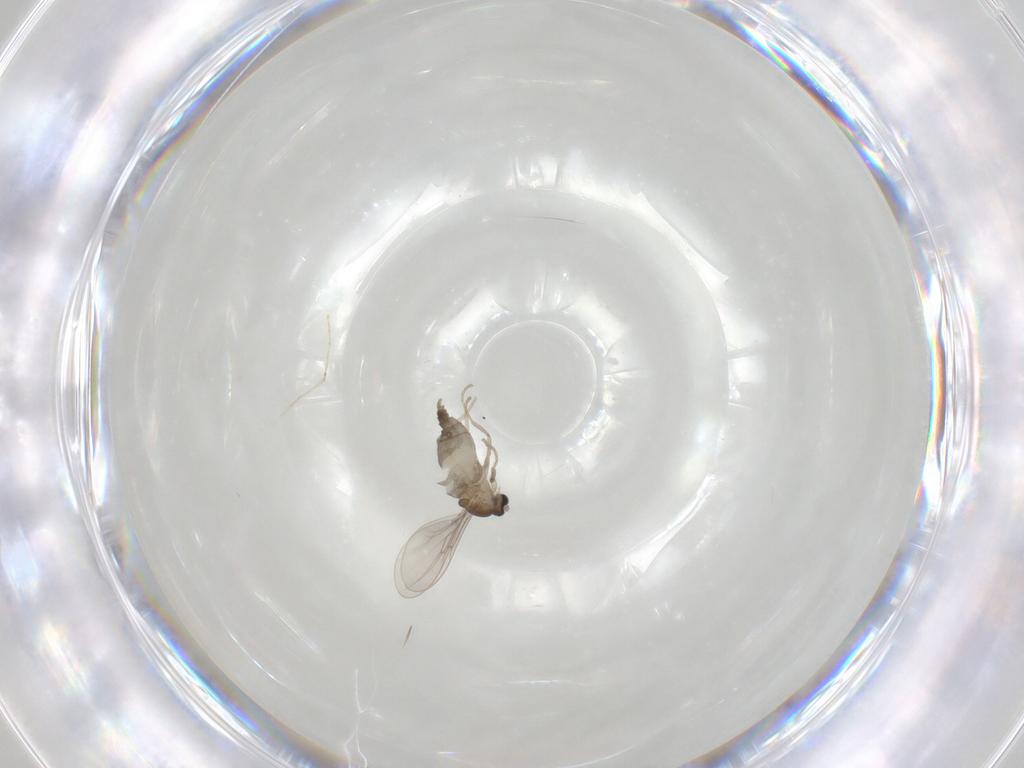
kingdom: Animalia
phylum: Arthropoda
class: Insecta
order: Diptera
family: Cecidomyiidae
